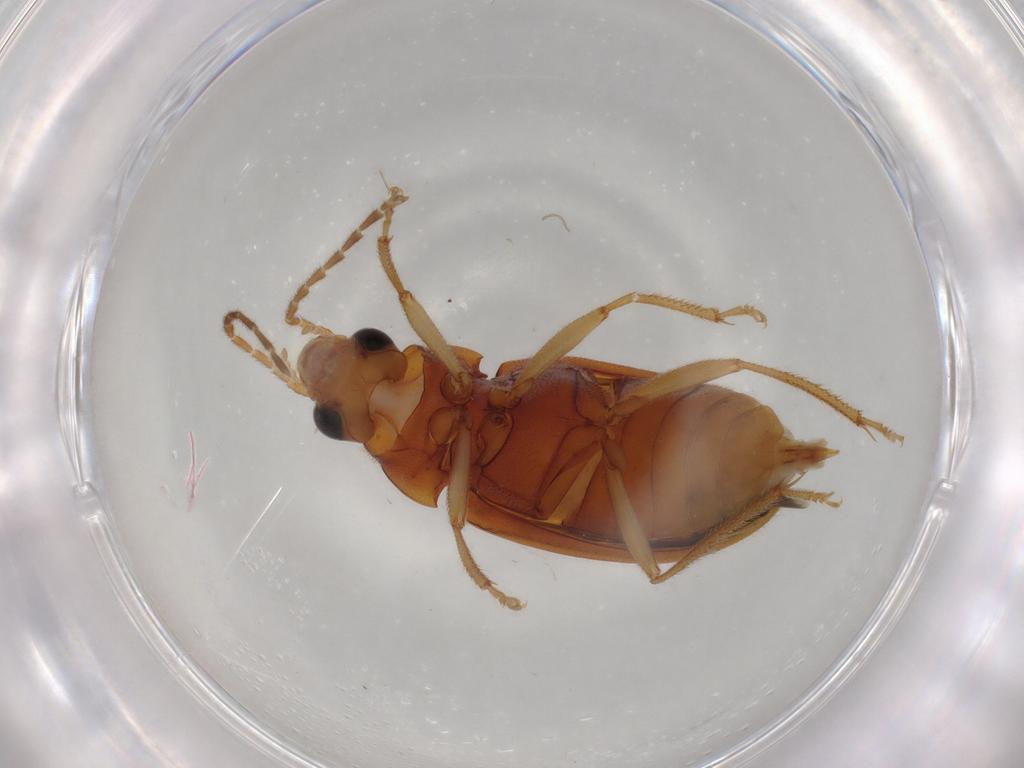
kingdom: Animalia
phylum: Arthropoda
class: Insecta
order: Coleoptera
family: Ptilodactylidae
